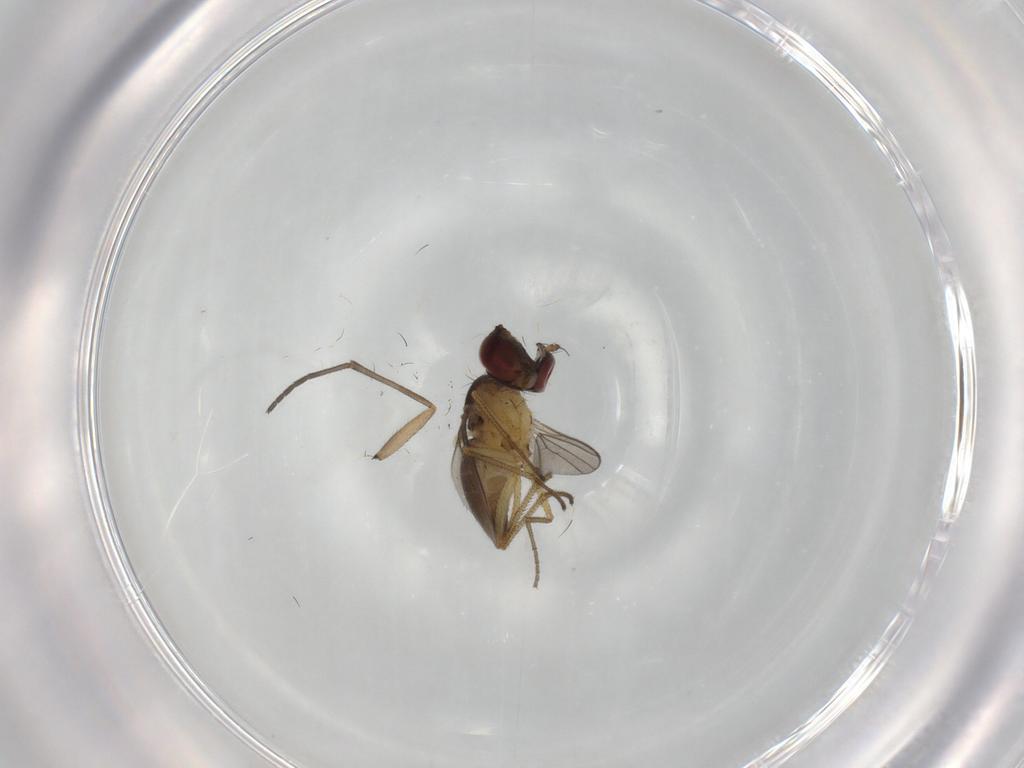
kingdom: Animalia
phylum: Arthropoda
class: Insecta
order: Diptera
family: Dolichopodidae
